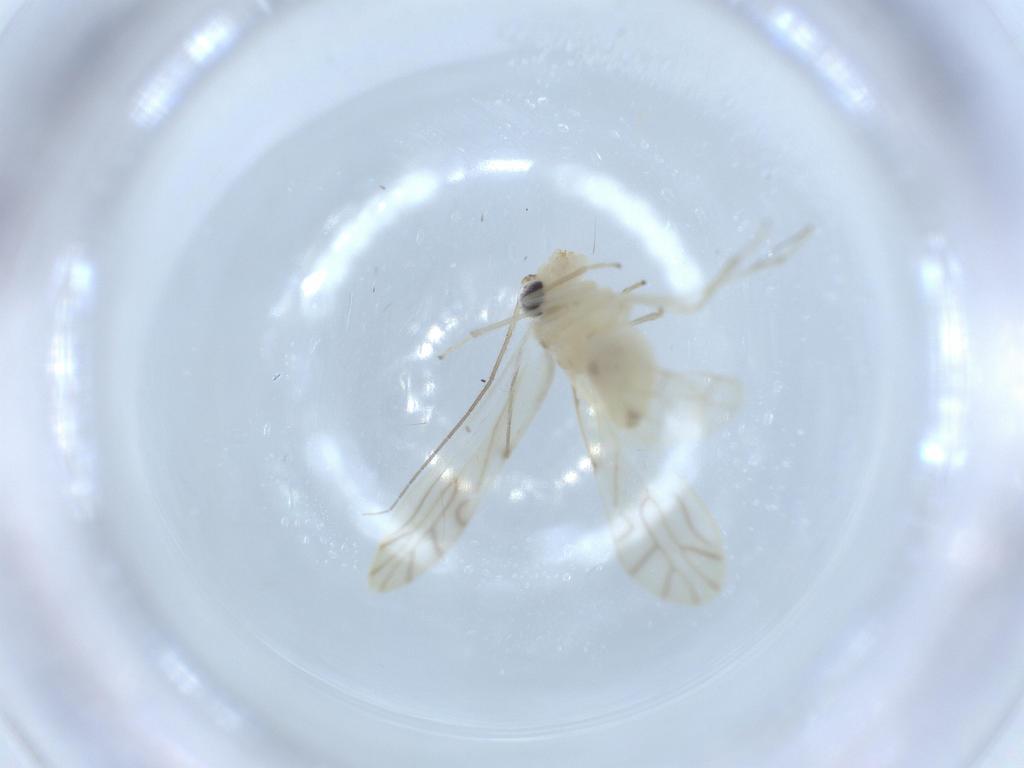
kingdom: Animalia
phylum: Arthropoda
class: Insecta
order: Psocodea
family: Caeciliusidae
